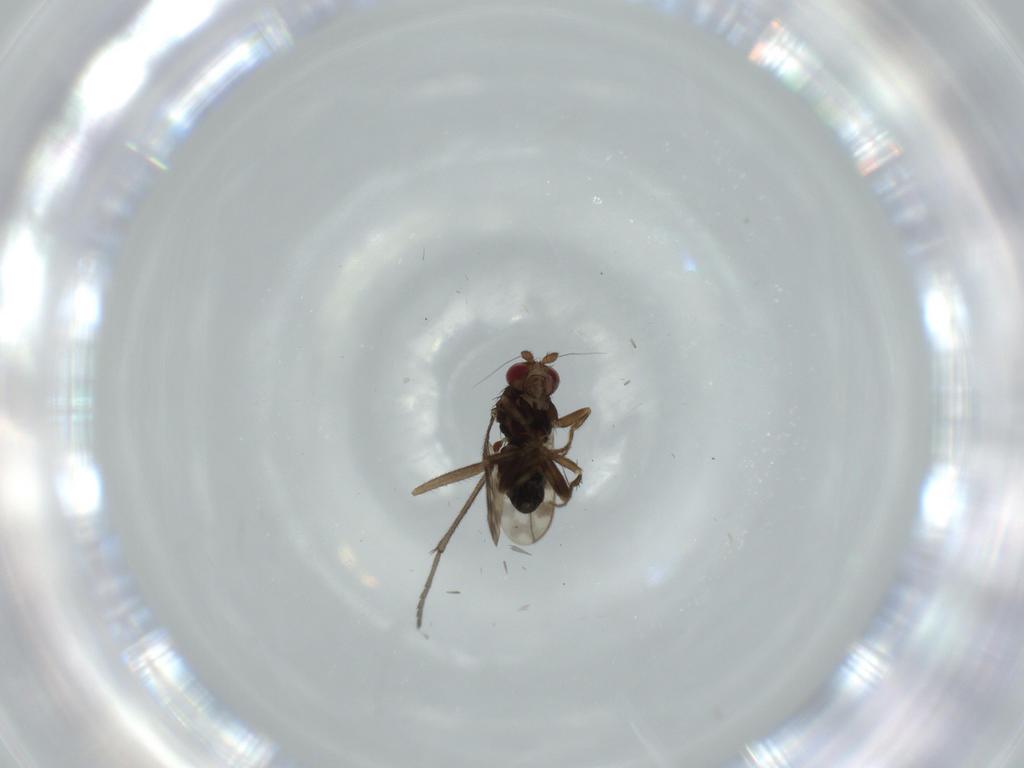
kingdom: Animalia
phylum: Arthropoda
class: Insecta
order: Diptera
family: Sphaeroceridae
